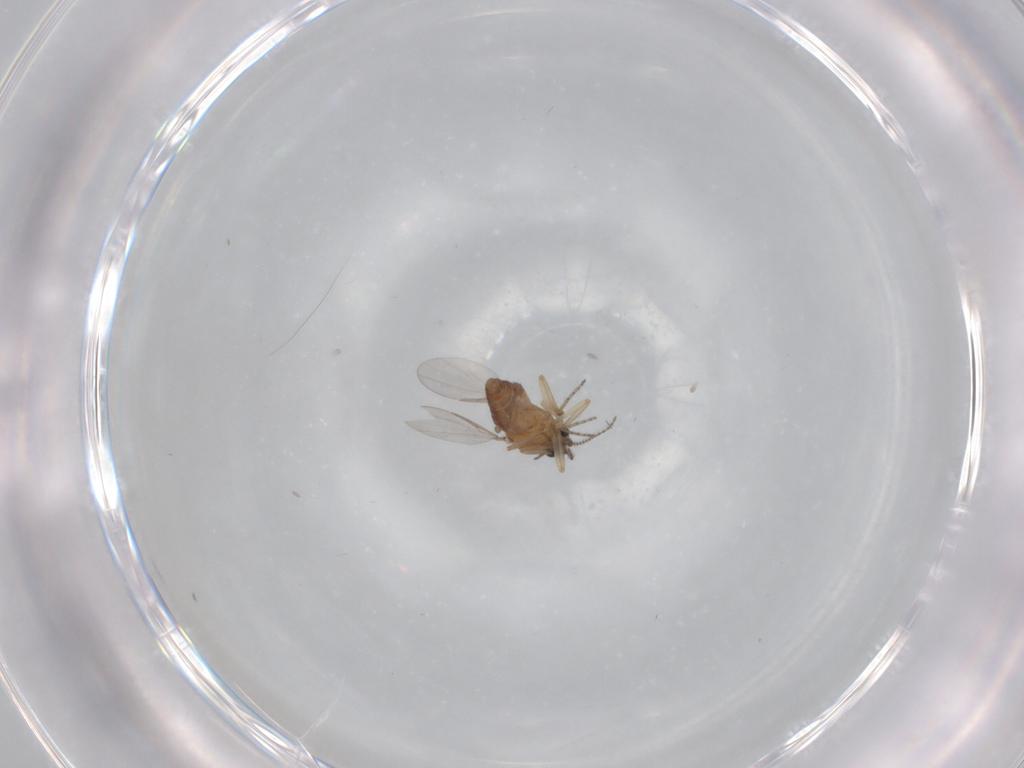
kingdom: Animalia
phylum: Arthropoda
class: Insecta
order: Diptera
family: Ceratopogonidae
